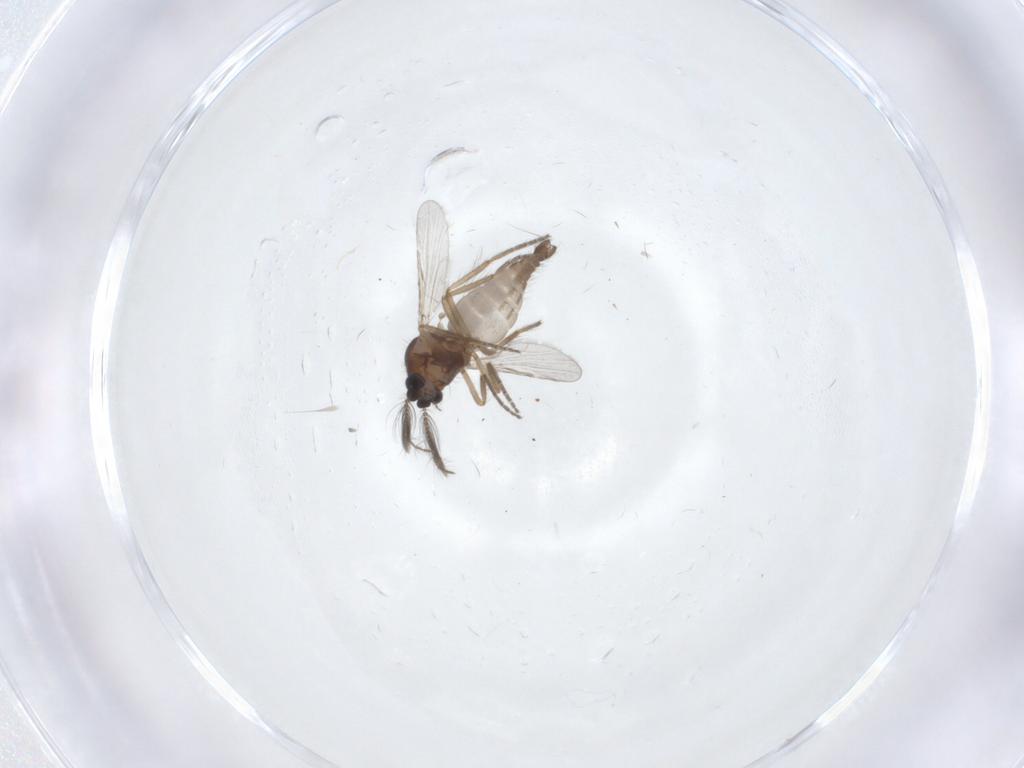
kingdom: Animalia
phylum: Arthropoda
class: Insecta
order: Diptera
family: Ceratopogonidae
